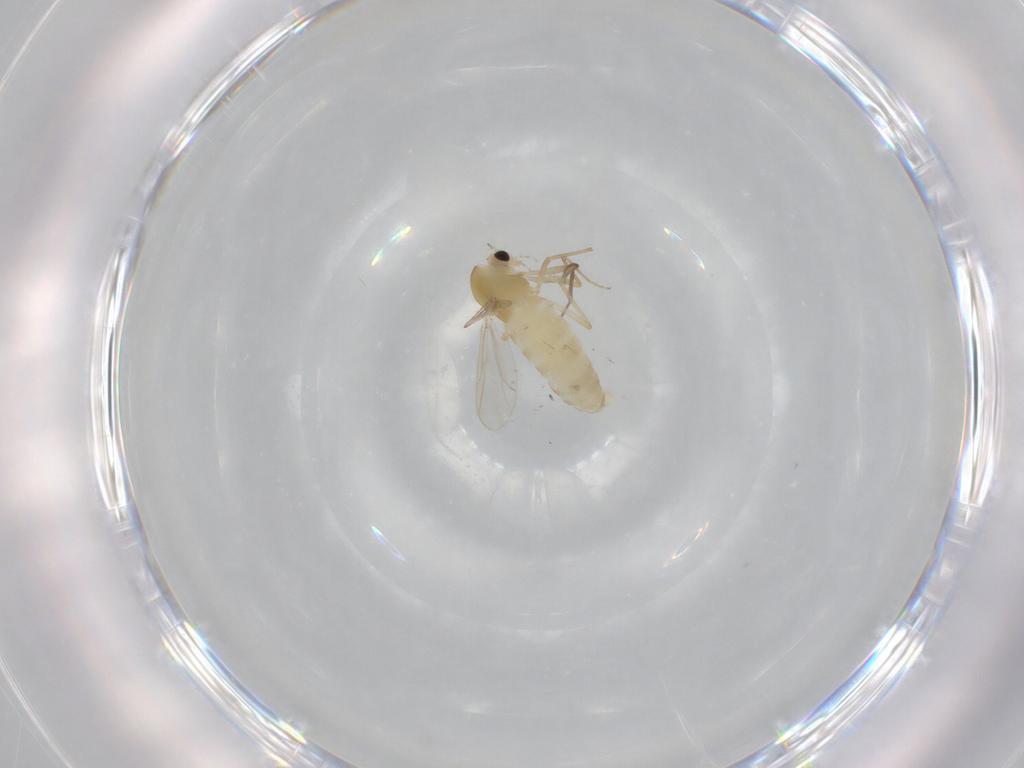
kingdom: Animalia
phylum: Arthropoda
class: Insecta
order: Diptera
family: Chironomidae
